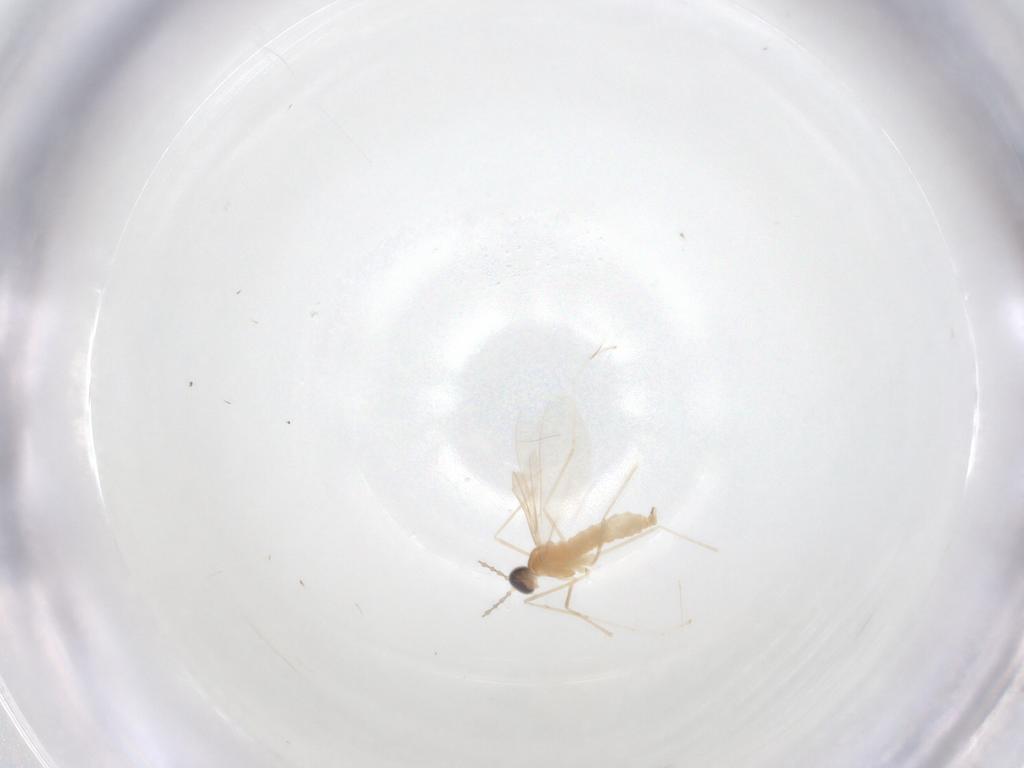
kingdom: Animalia
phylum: Arthropoda
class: Insecta
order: Diptera
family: Cecidomyiidae
